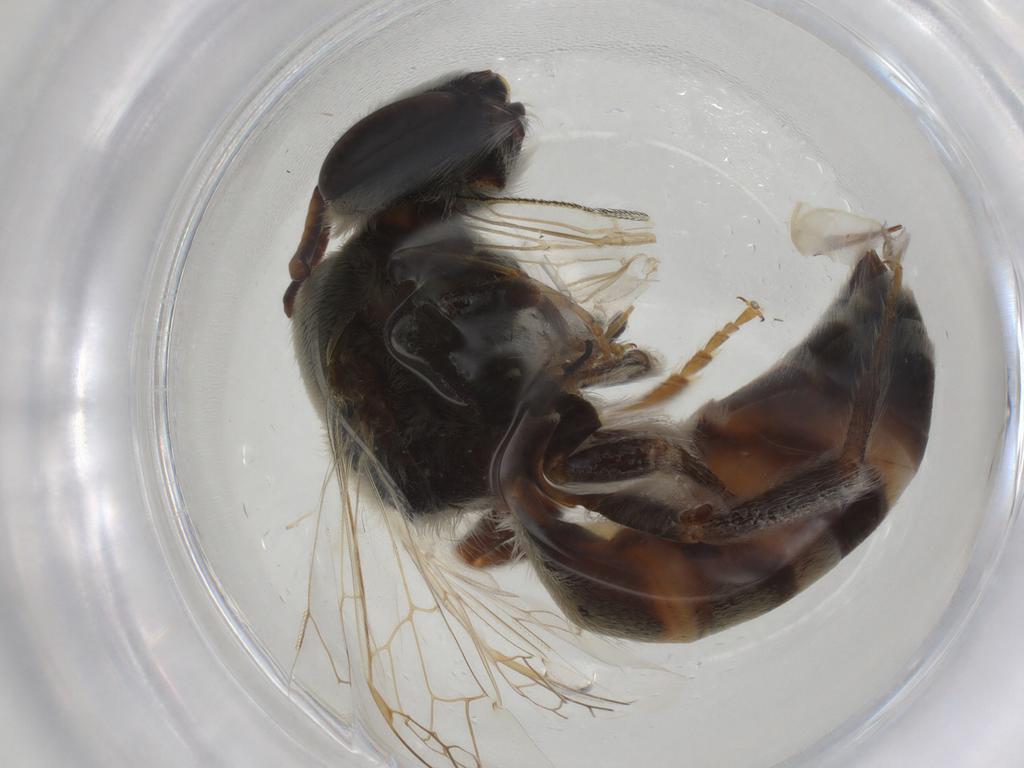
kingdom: Animalia
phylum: Arthropoda
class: Insecta
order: Hymenoptera
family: Colletidae
